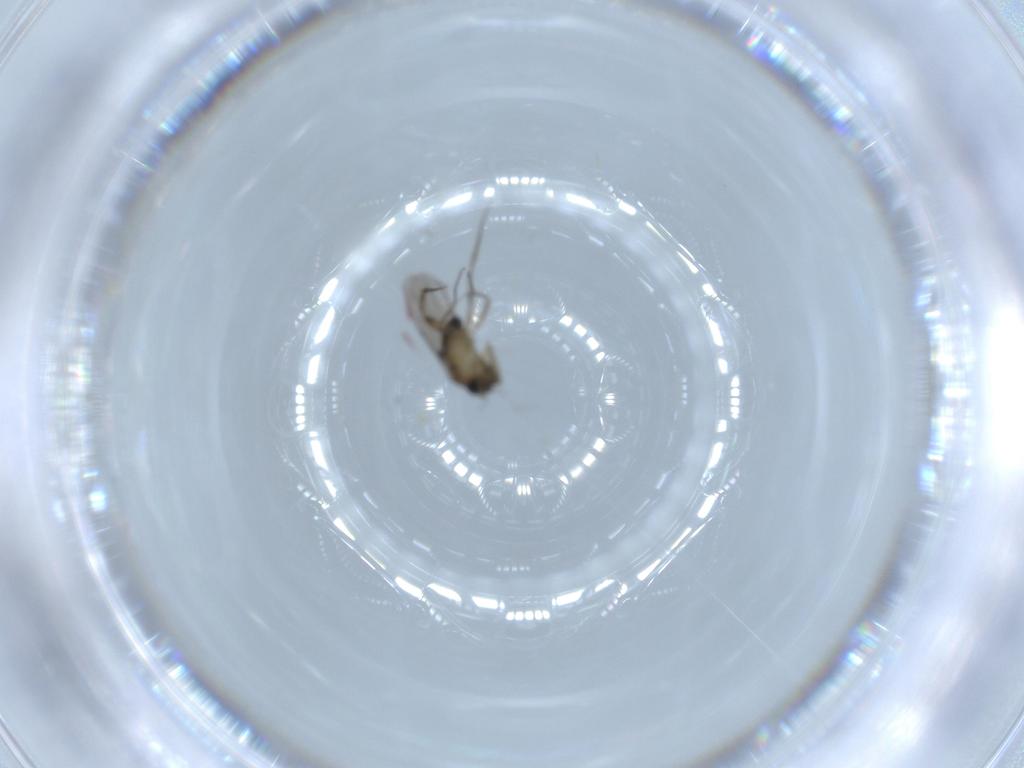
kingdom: Animalia
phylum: Arthropoda
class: Insecta
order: Diptera
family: Phoridae
